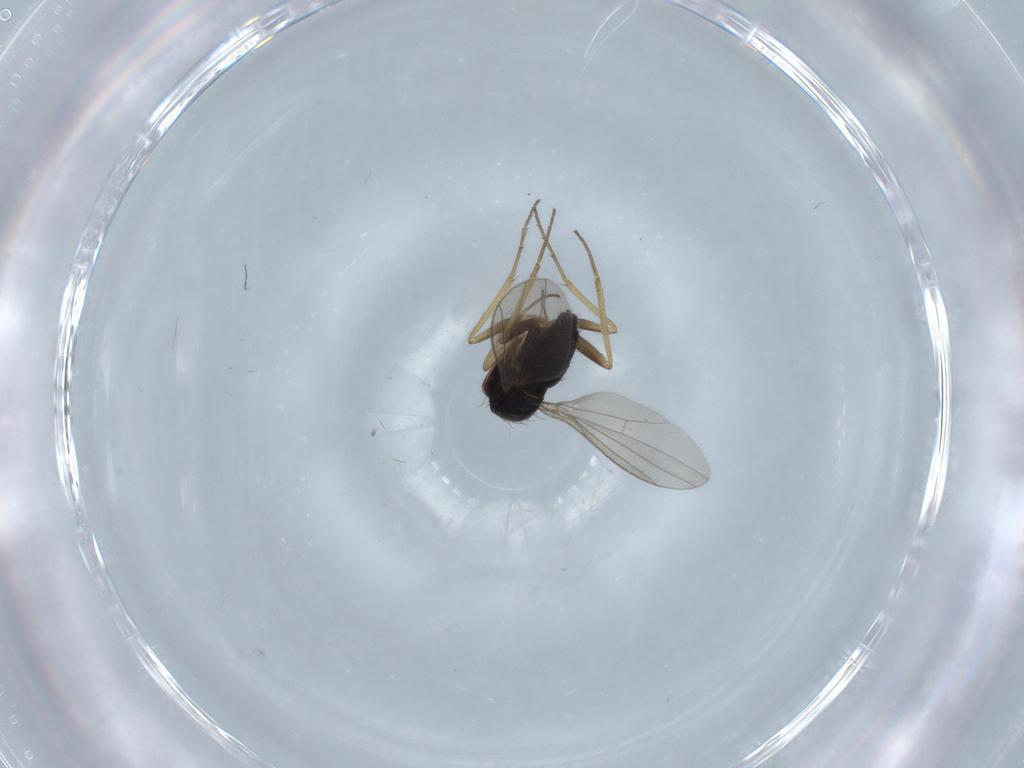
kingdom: Animalia
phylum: Arthropoda
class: Insecta
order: Diptera
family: Dolichopodidae
